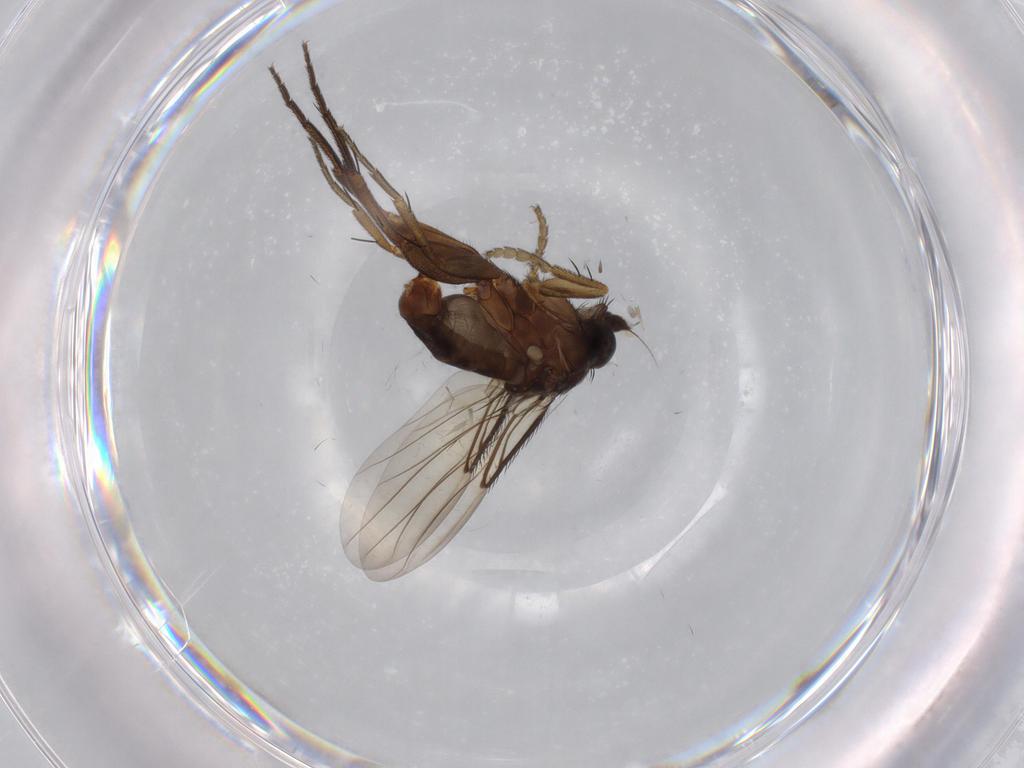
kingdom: Animalia
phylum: Arthropoda
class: Insecta
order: Diptera
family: Phoridae
